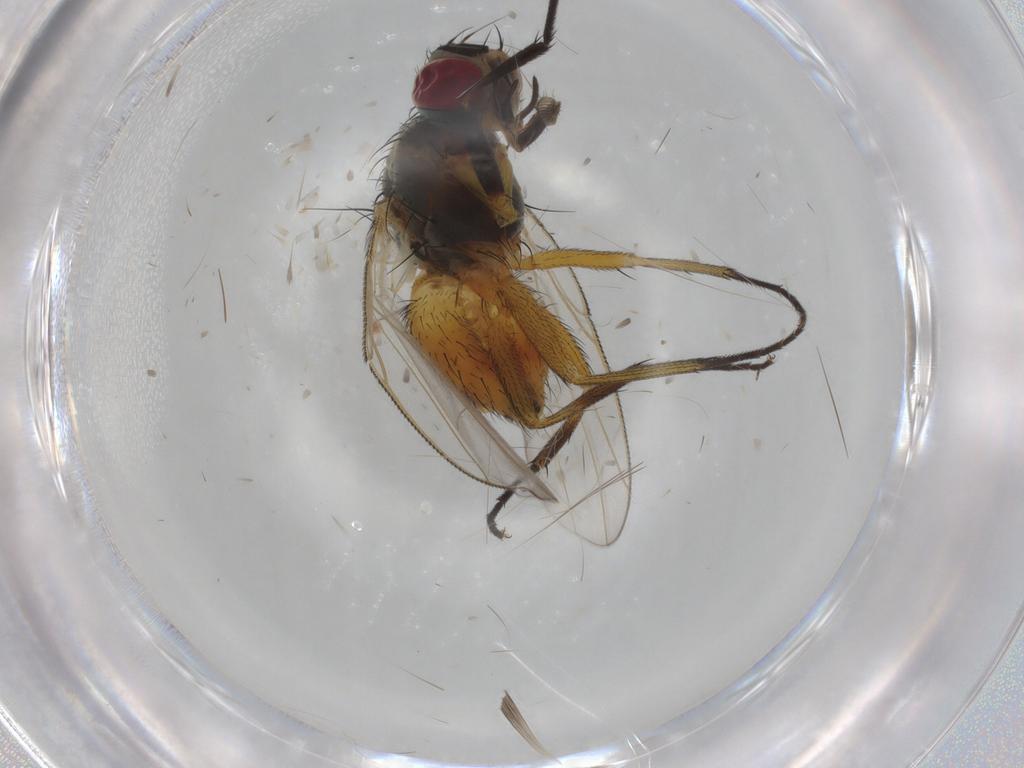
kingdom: Animalia
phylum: Arthropoda
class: Insecta
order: Diptera
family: Muscidae
